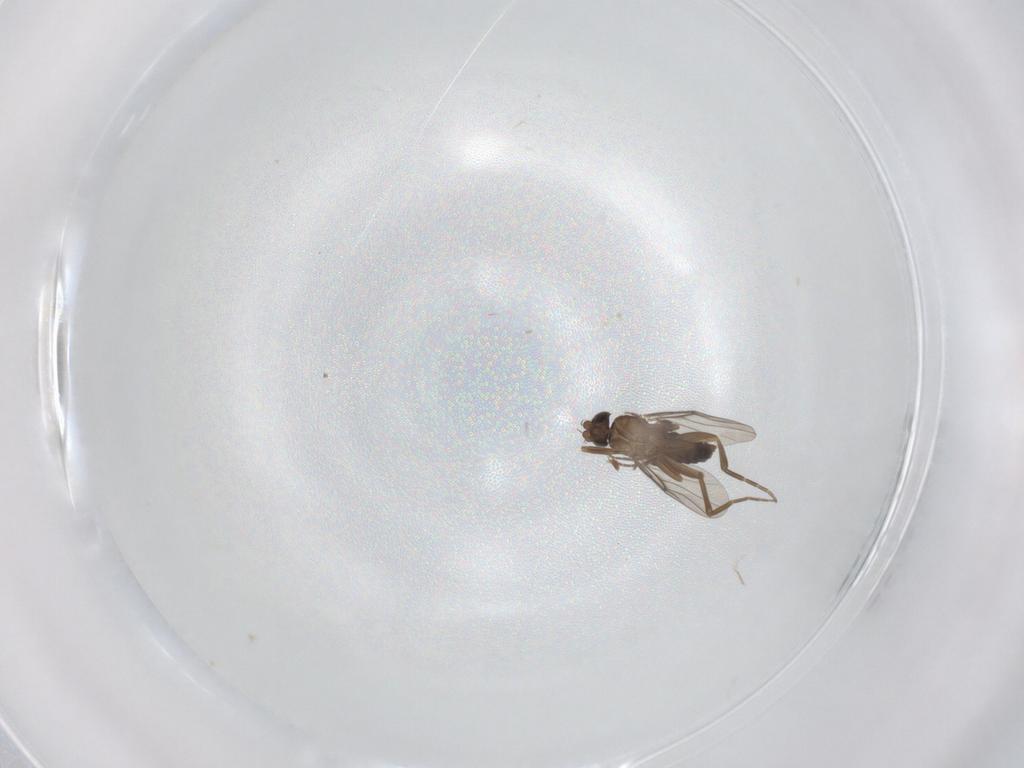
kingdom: Animalia
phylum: Arthropoda
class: Insecta
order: Diptera
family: Phoridae
